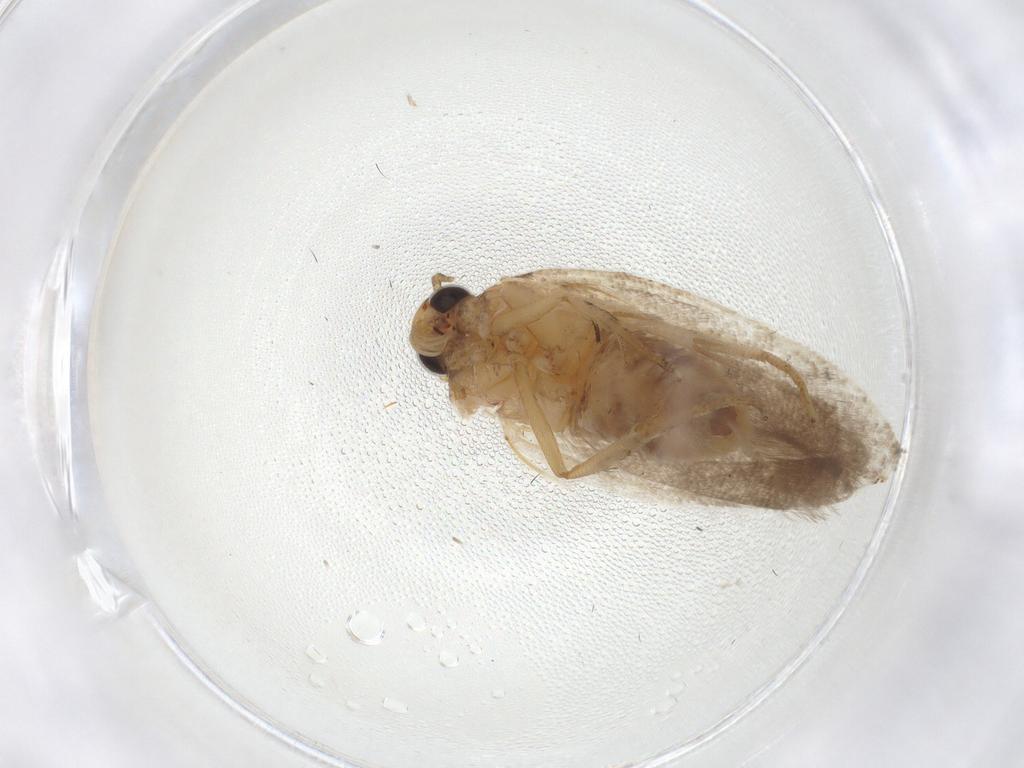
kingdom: Animalia
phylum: Arthropoda
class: Insecta
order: Lepidoptera
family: Gelechiidae
